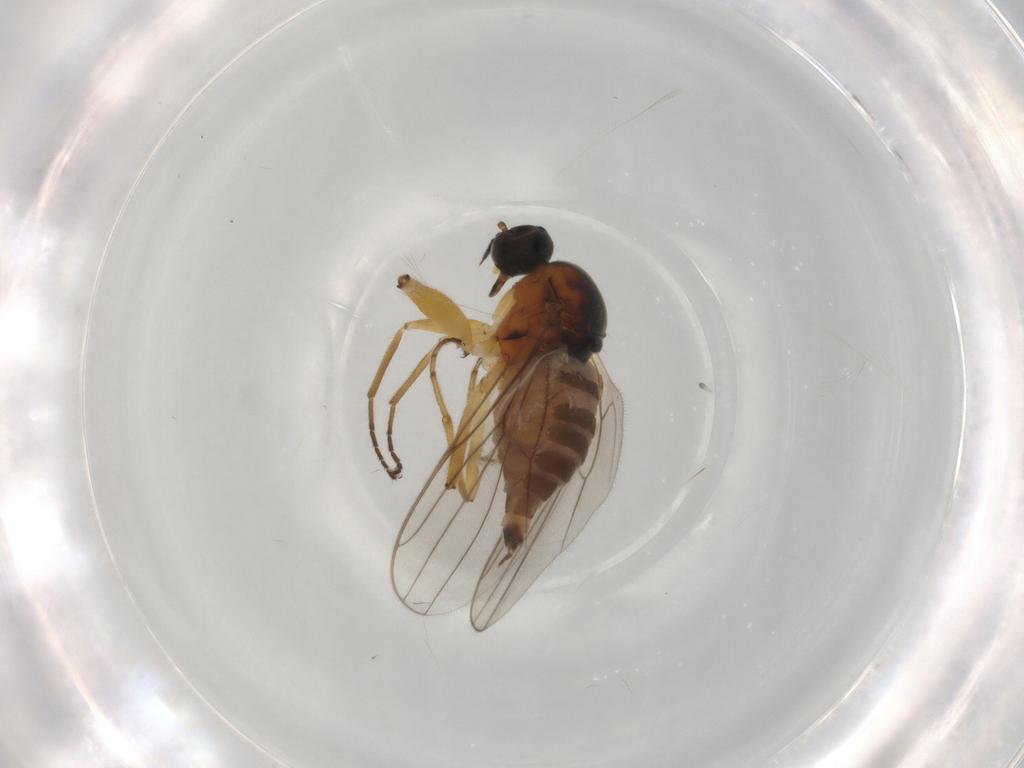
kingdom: Animalia
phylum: Arthropoda
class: Insecta
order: Diptera
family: Hybotidae
